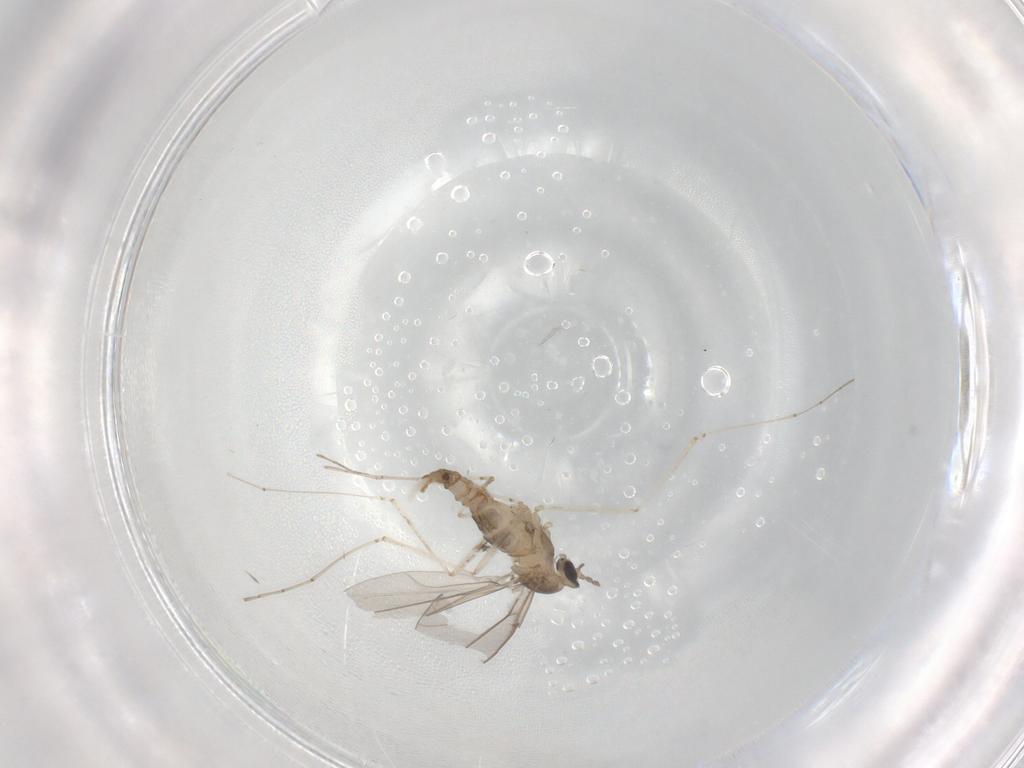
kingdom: Animalia
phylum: Arthropoda
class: Insecta
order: Diptera
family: Cecidomyiidae
